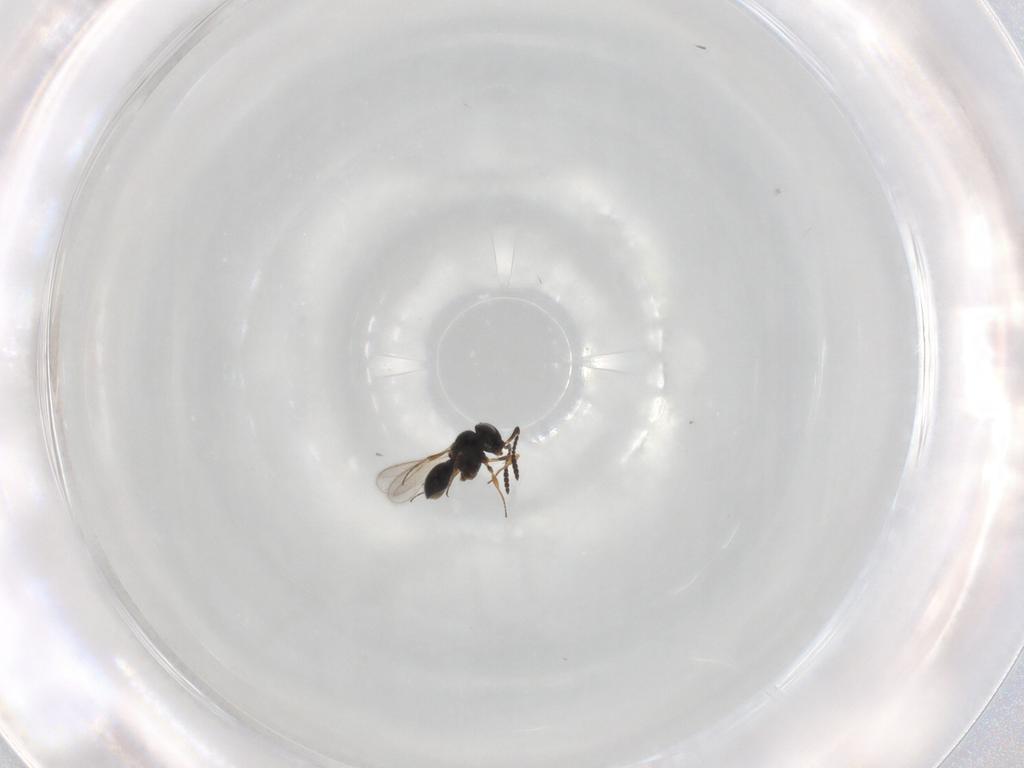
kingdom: Animalia
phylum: Arthropoda
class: Insecta
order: Hymenoptera
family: Scelionidae
